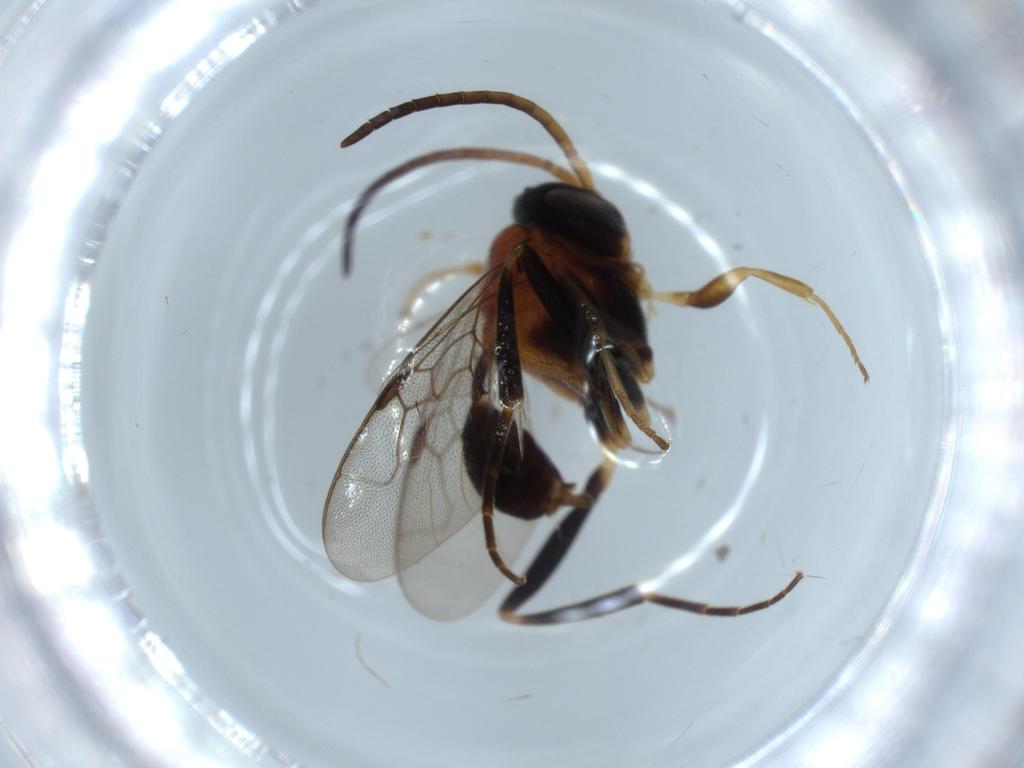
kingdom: Animalia
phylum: Arthropoda
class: Insecta
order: Hymenoptera
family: Evaniidae
